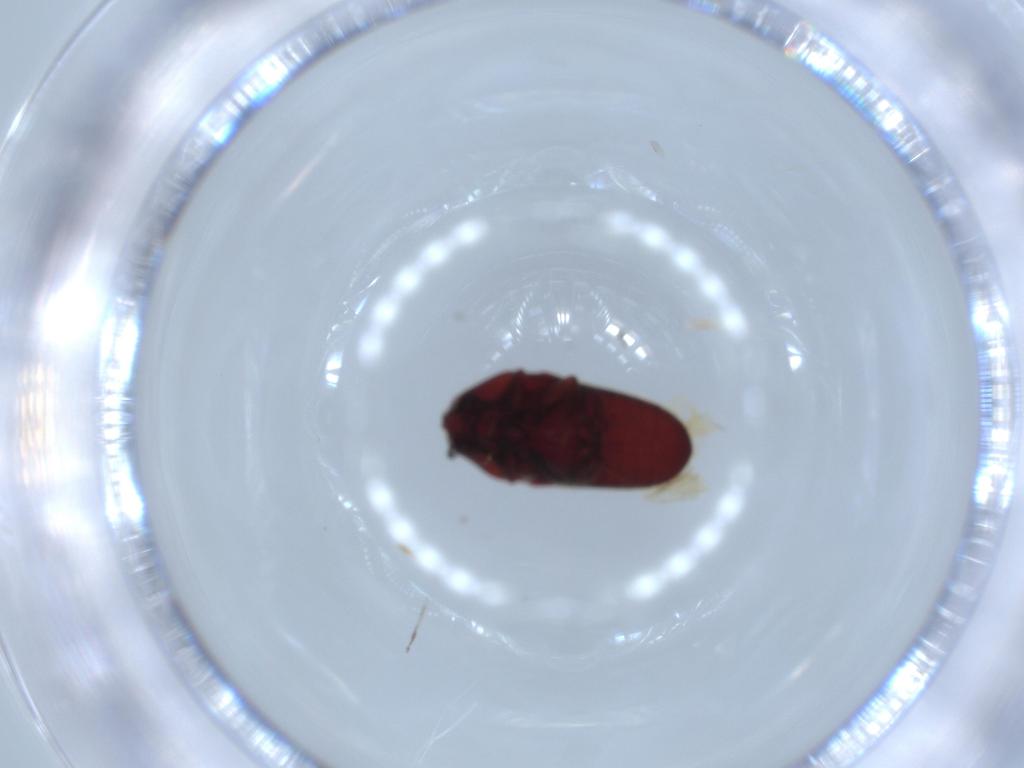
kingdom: Animalia
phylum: Arthropoda
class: Insecta
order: Coleoptera
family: Throscidae
